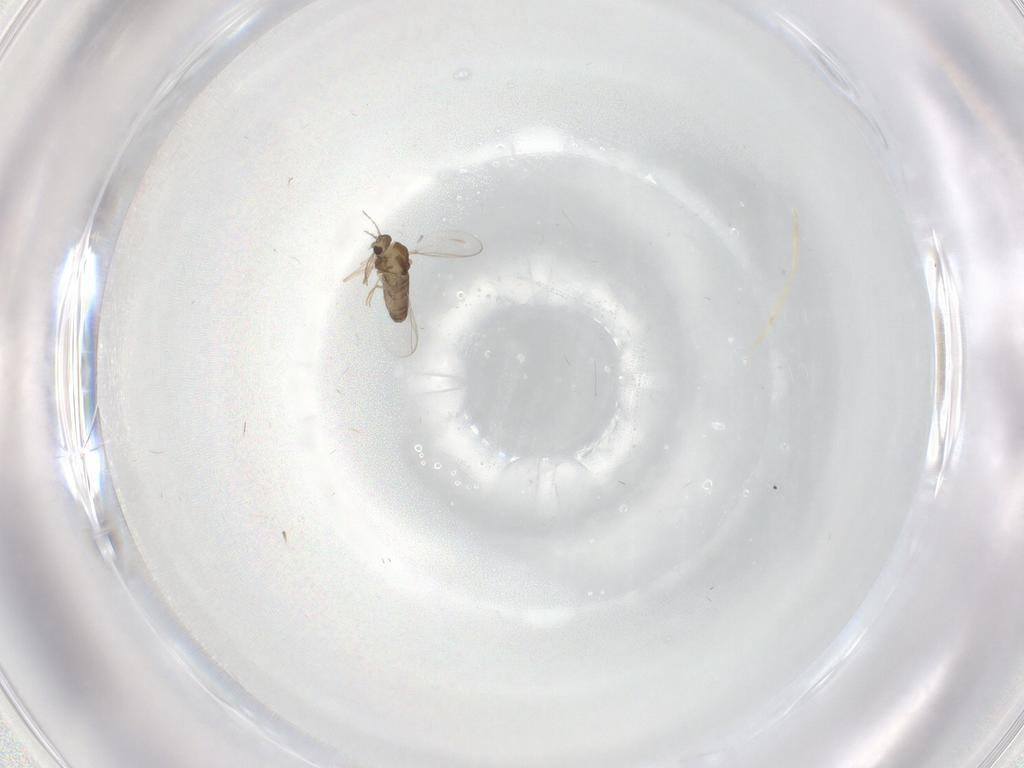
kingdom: Animalia
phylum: Arthropoda
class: Insecta
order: Diptera
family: Chironomidae
